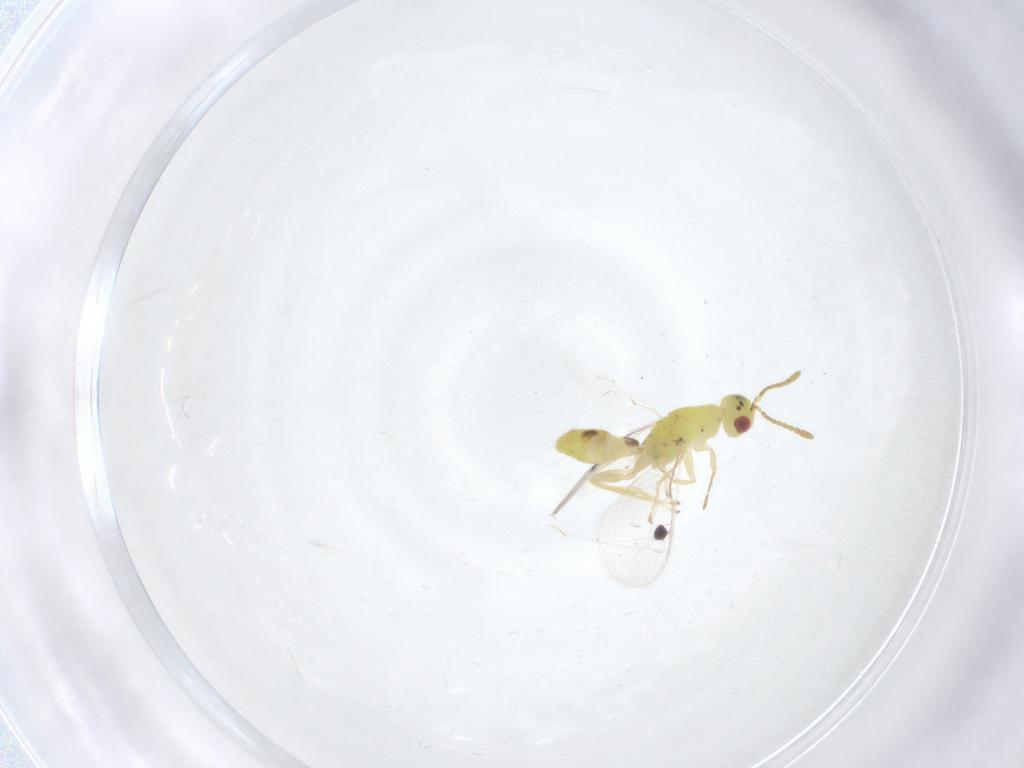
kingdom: Animalia
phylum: Arthropoda
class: Insecta
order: Hymenoptera
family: Megastigmidae
